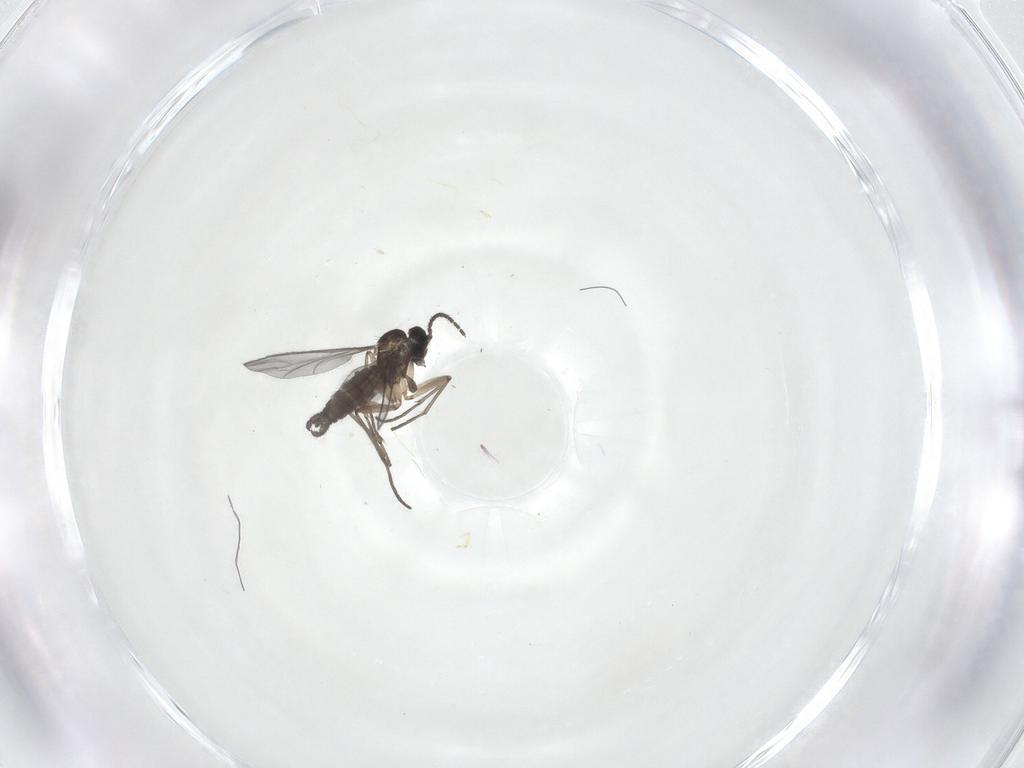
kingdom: Animalia
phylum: Arthropoda
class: Insecta
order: Diptera
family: Sciaridae
